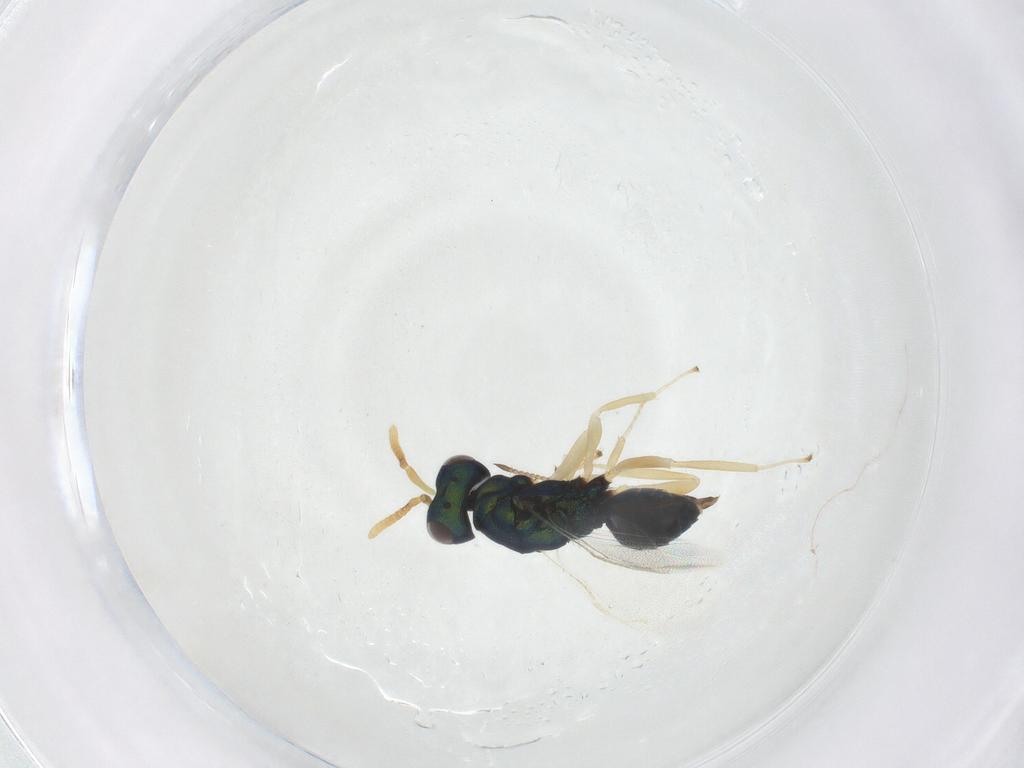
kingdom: Animalia
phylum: Arthropoda
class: Insecta
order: Hymenoptera
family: Pteromalidae
